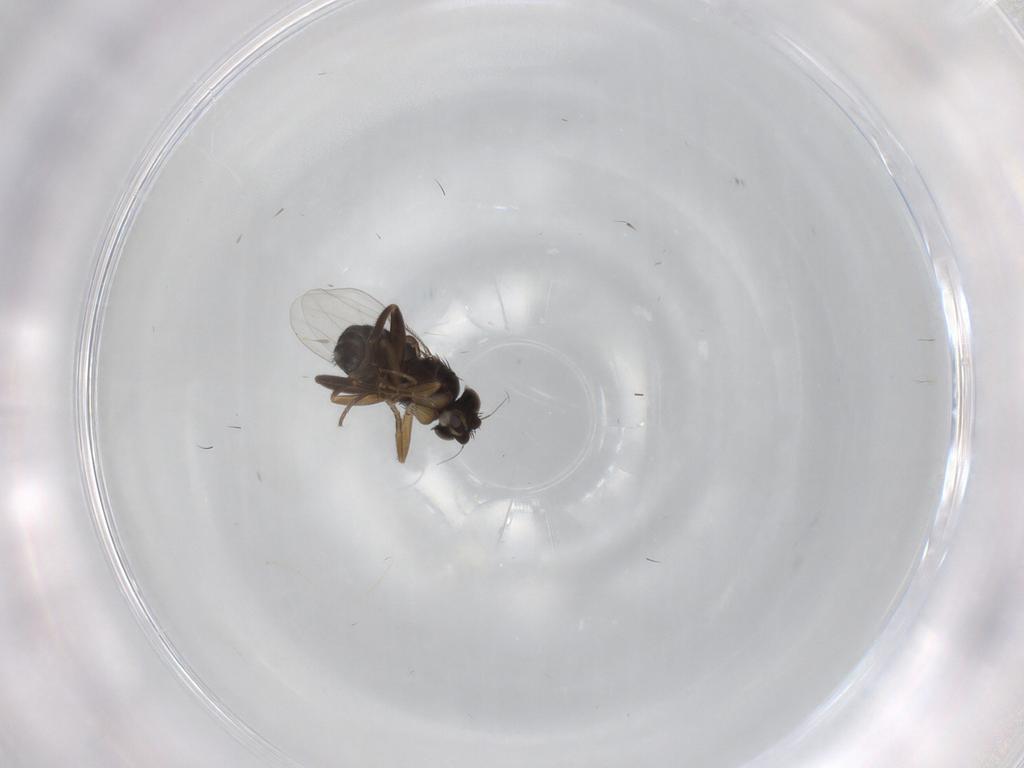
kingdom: Animalia
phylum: Arthropoda
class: Insecta
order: Diptera
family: Phoridae
